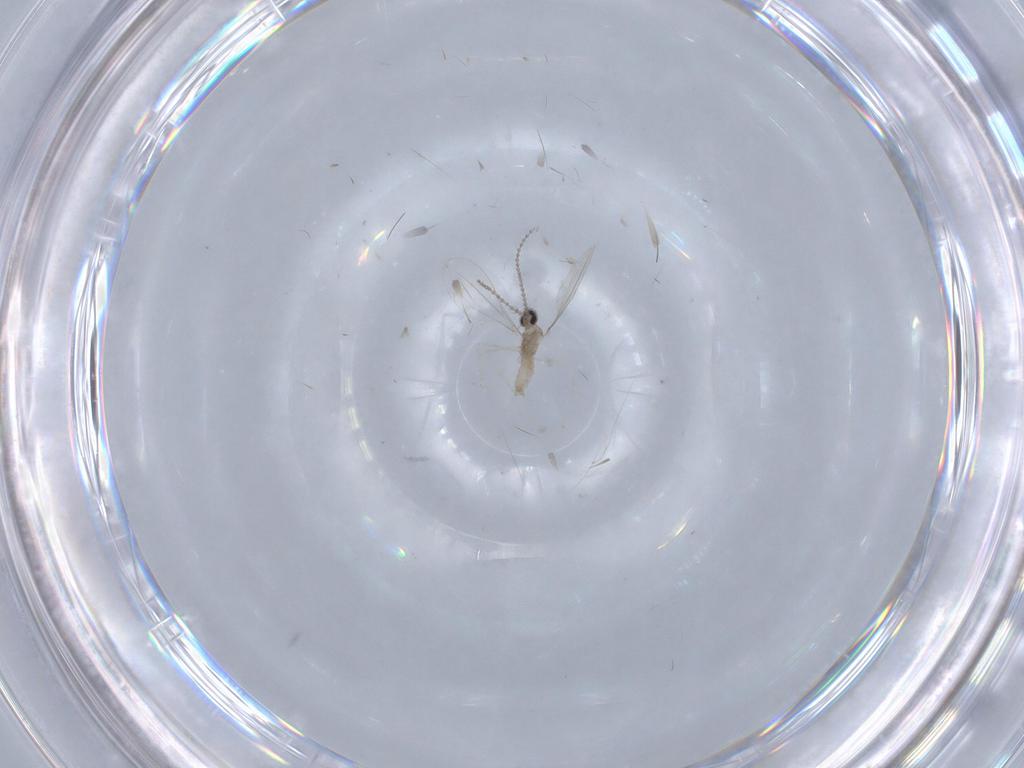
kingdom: Animalia
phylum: Arthropoda
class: Insecta
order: Diptera
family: Cecidomyiidae
